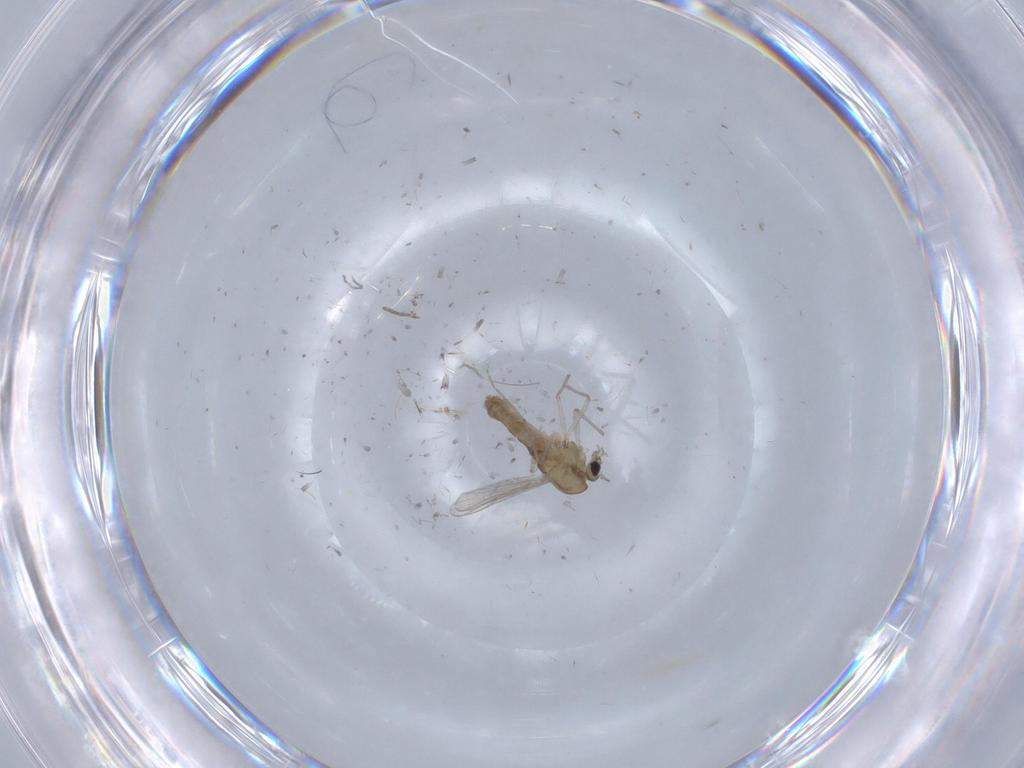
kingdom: Animalia
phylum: Arthropoda
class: Insecta
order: Diptera
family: Chironomidae
